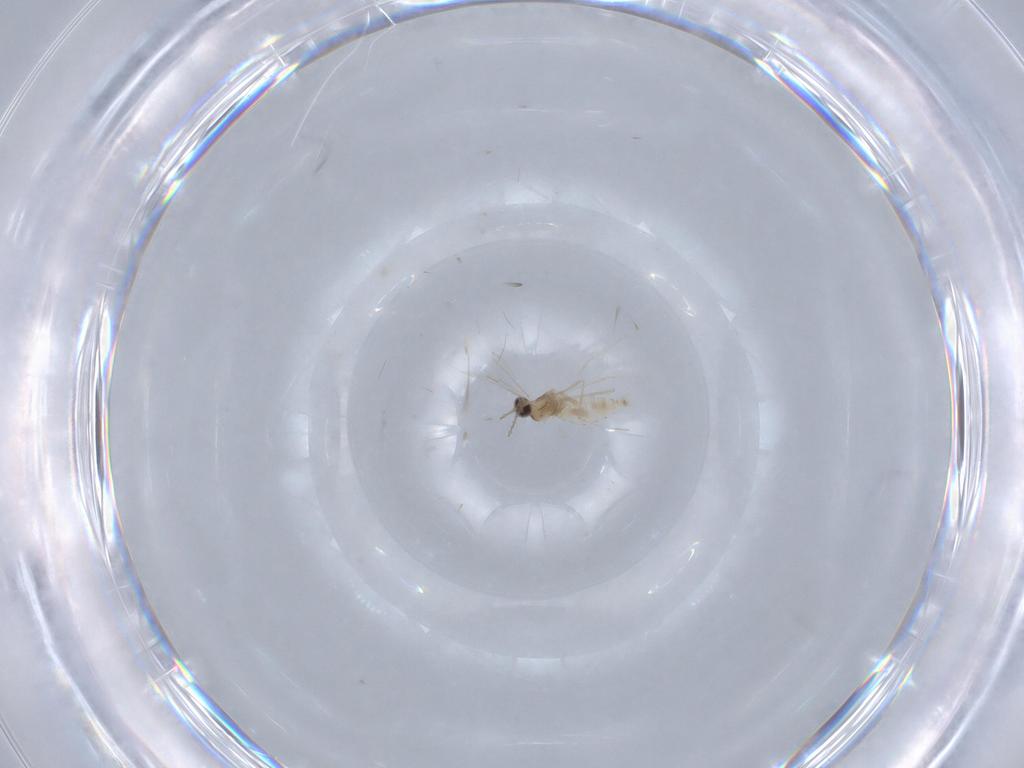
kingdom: Animalia
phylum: Arthropoda
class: Insecta
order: Diptera
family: Cecidomyiidae
